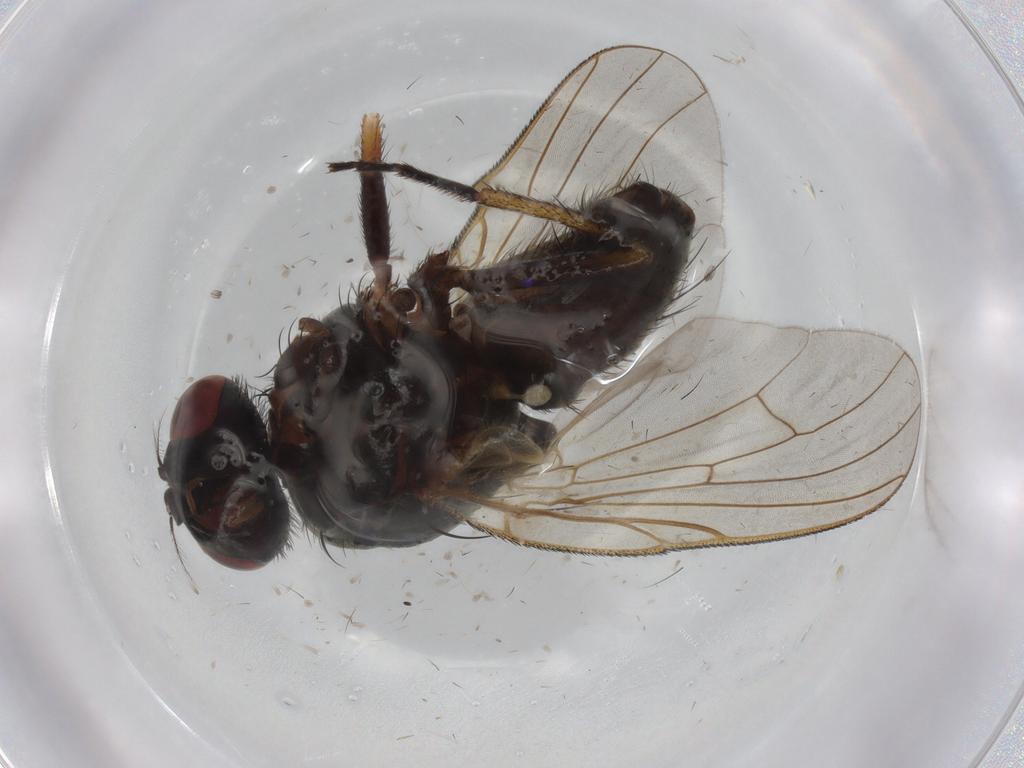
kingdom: Animalia
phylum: Arthropoda
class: Insecta
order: Diptera
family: Muscidae
